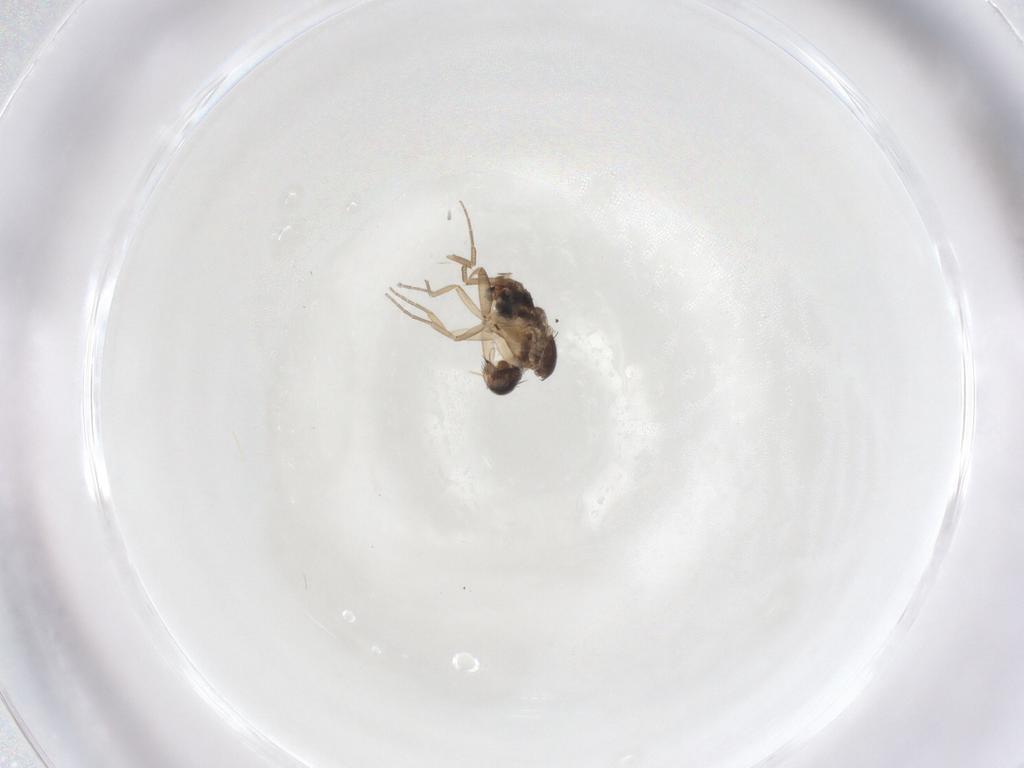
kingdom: Animalia
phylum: Arthropoda
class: Insecta
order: Diptera
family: Phoridae
